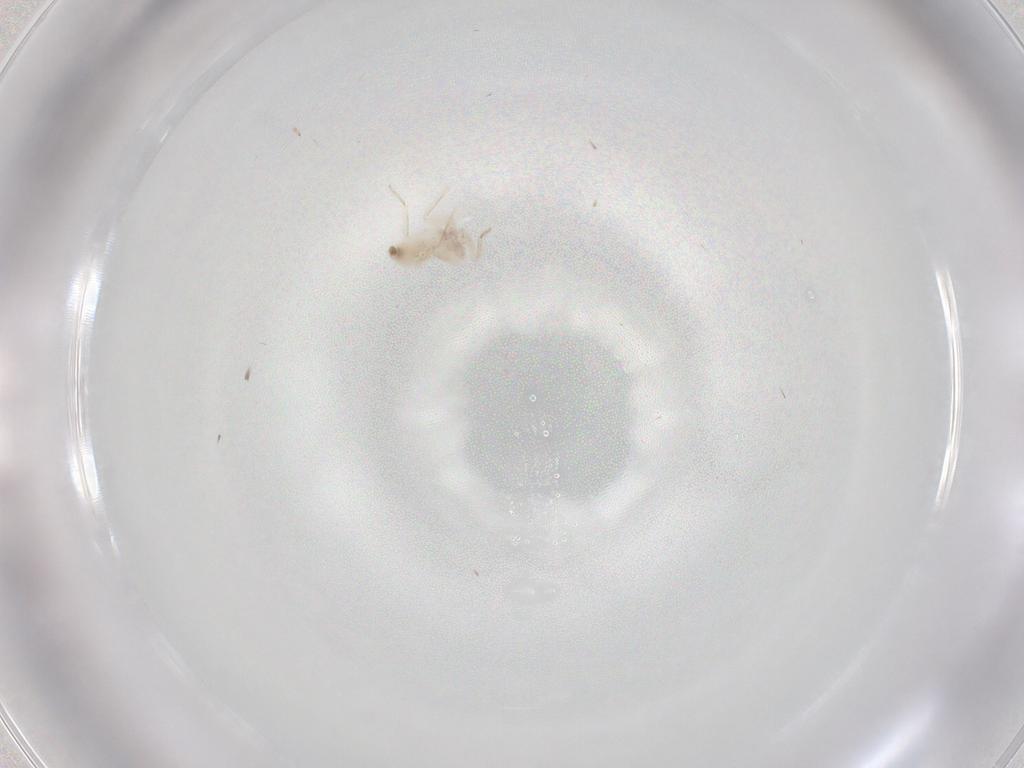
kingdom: Animalia
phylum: Arthropoda
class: Insecta
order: Psocodea
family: Lepidopsocidae
